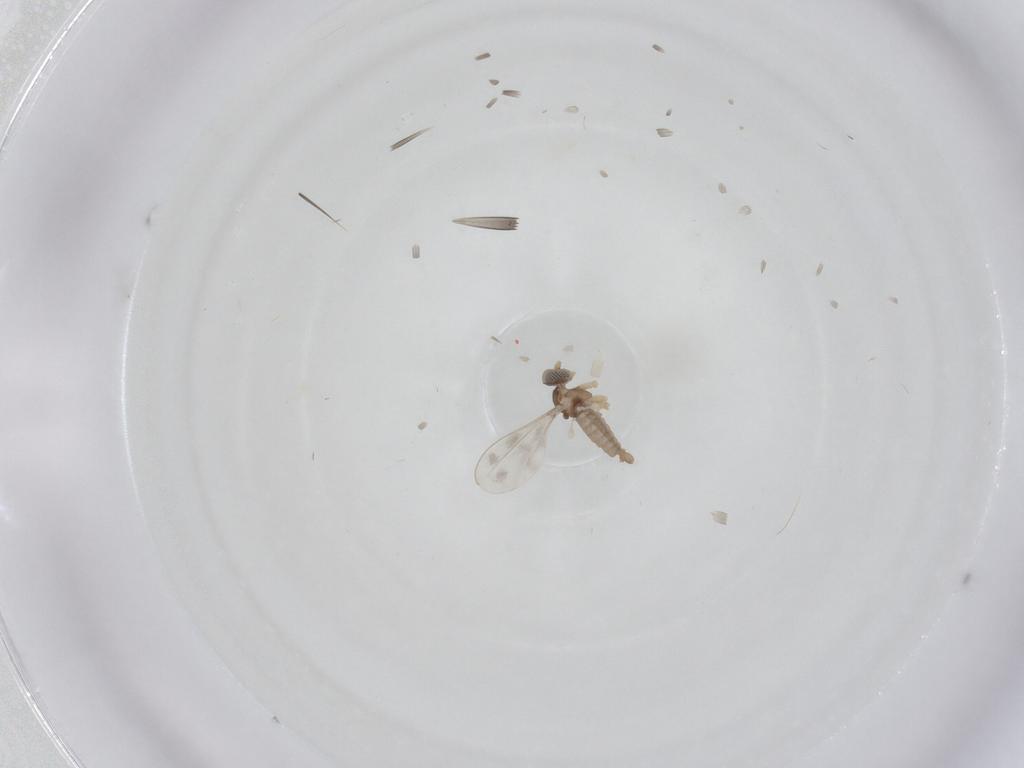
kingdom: Animalia
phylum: Arthropoda
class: Insecta
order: Diptera
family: Cecidomyiidae
